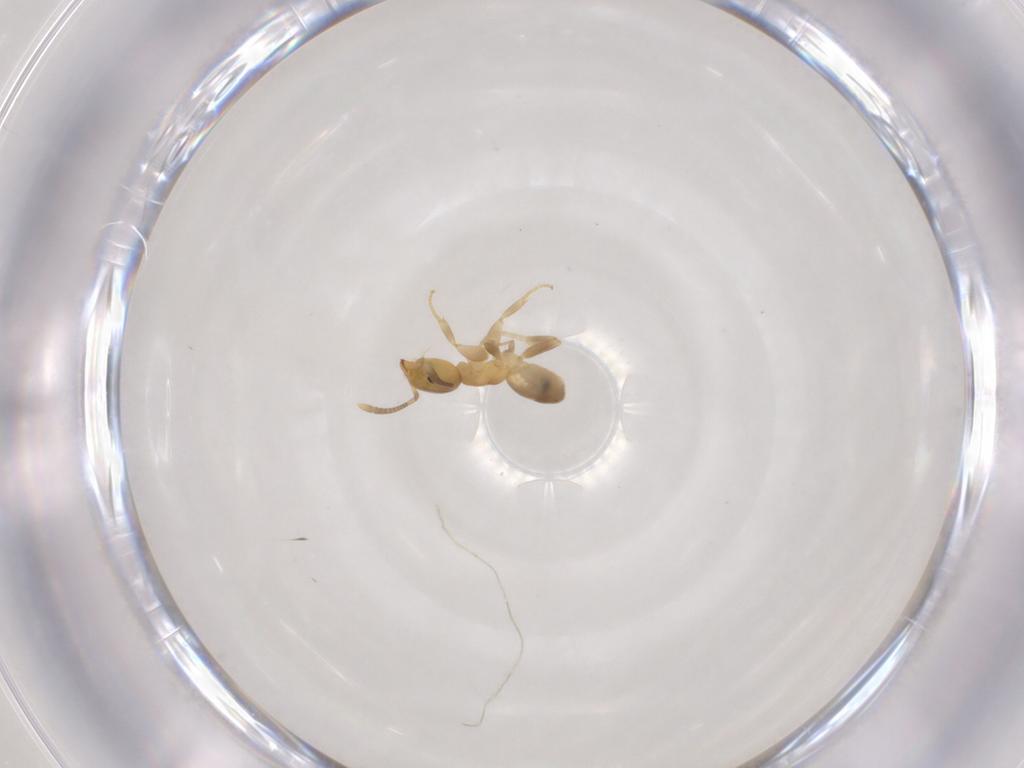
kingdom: Animalia
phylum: Arthropoda
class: Insecta
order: Hymenoptera
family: Formicidae
